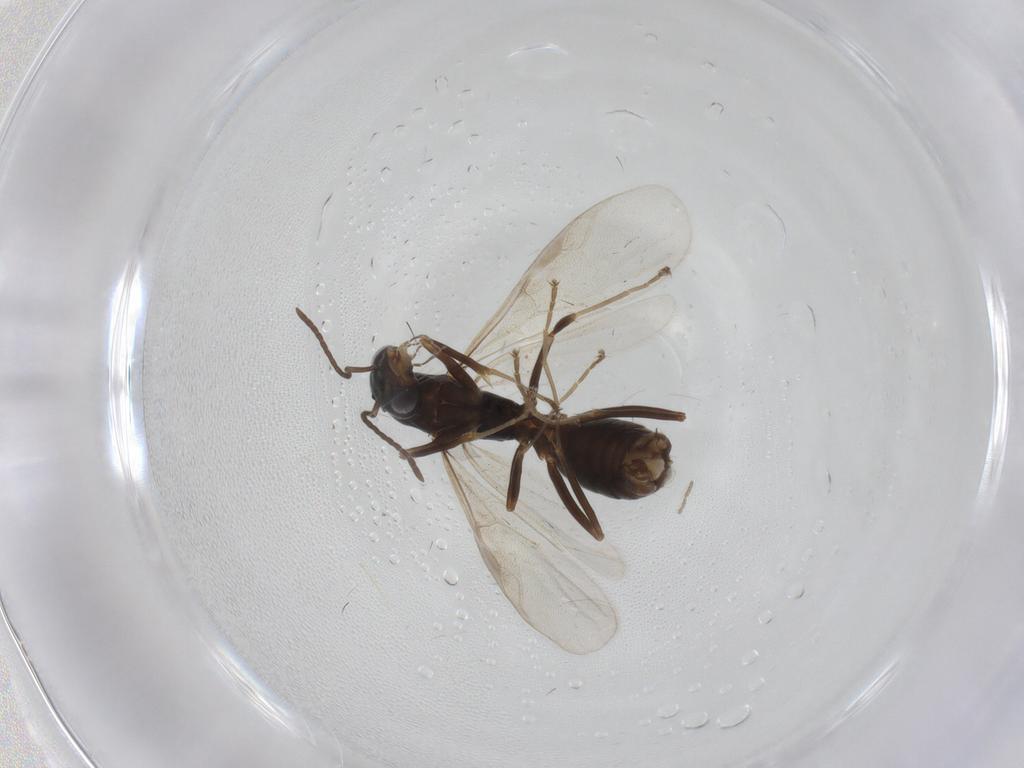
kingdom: Animalia
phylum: Arthropoda
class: Insecta
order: Hymenoptera
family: Formicidae
